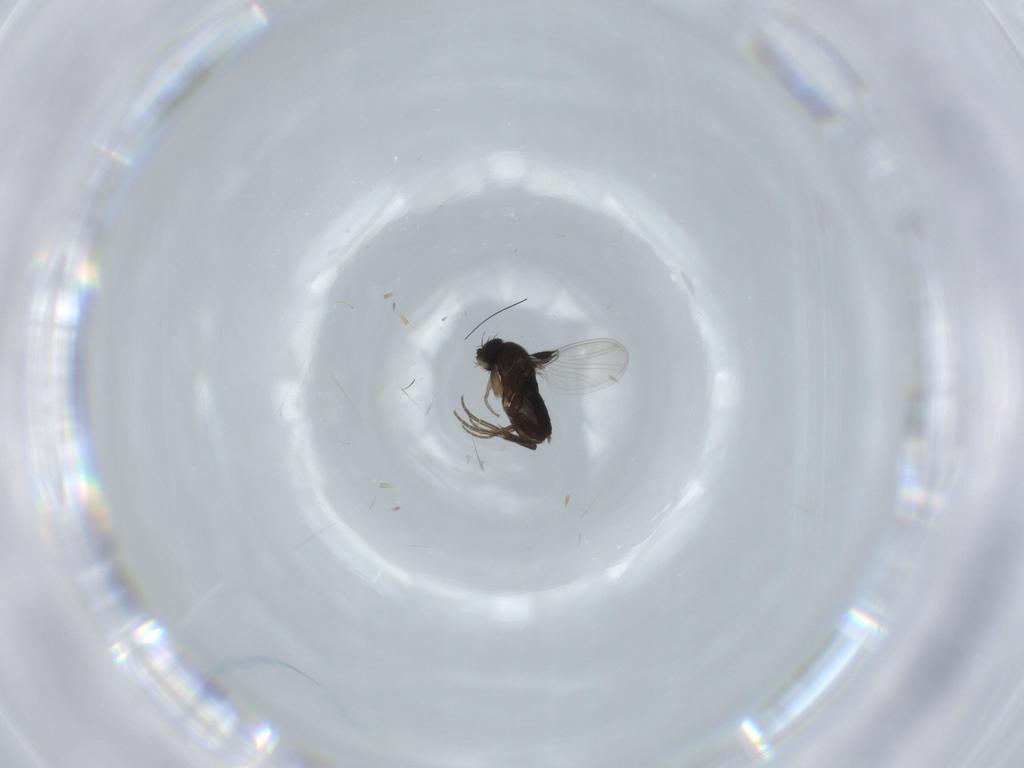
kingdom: Animalia
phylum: Arthropoda
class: Insecta
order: Diptera
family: Phoridae
